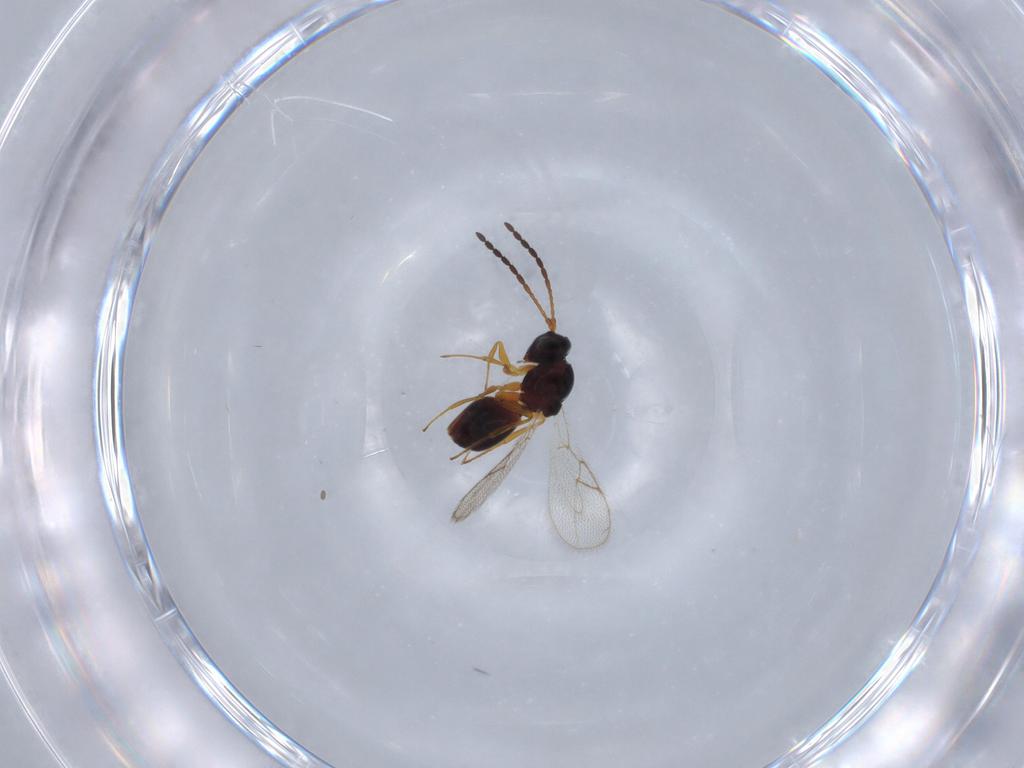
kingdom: Animalia
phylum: Arthropoda
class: Insecta
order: Hymenoptera
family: Figitidae
